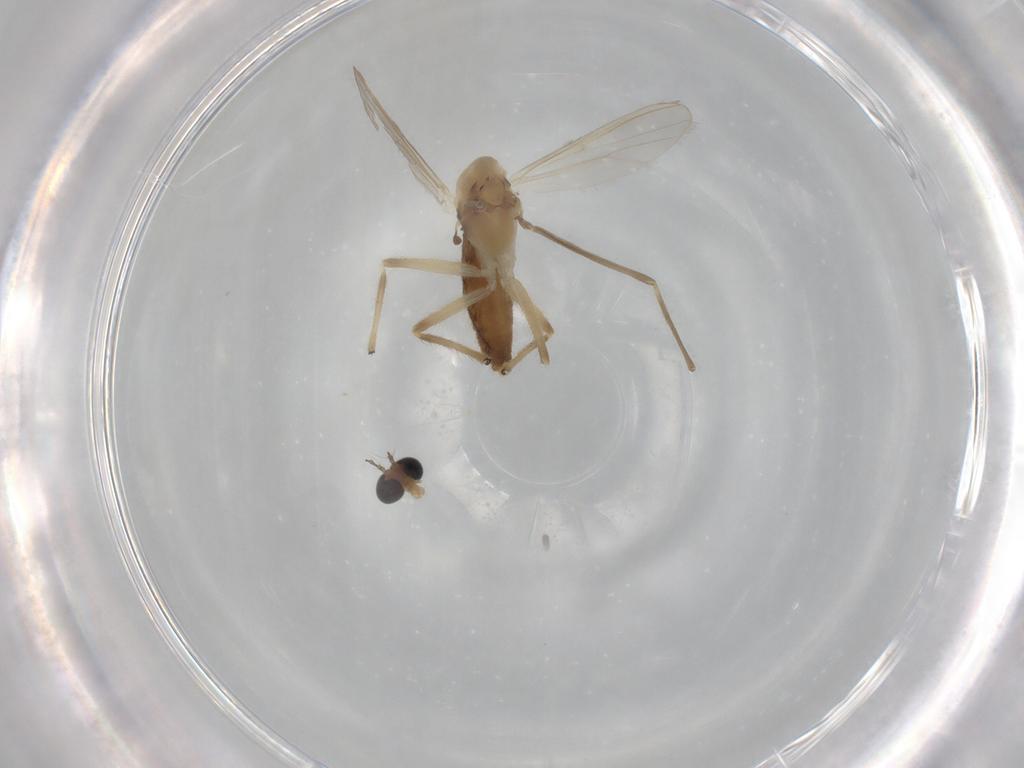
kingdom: Animalia
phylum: Arthropoda
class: Insecta
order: Diptera
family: Chironomidae
